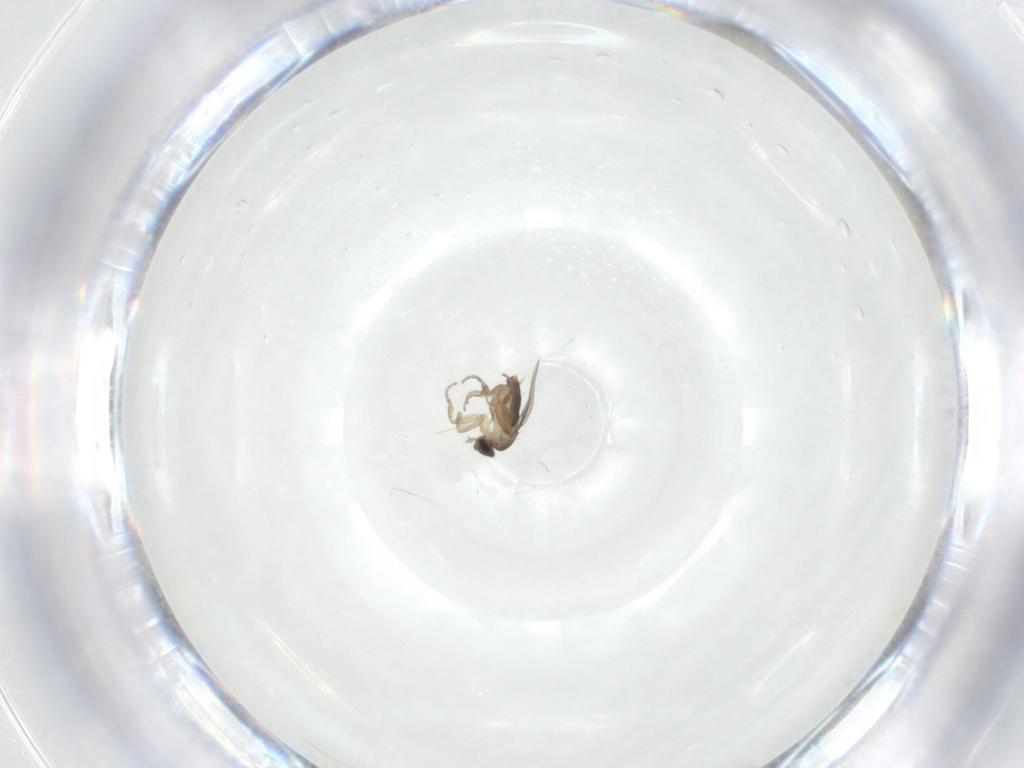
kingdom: Animalia
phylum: Arthropoda
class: Insecta
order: Diptera
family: Phoridae
